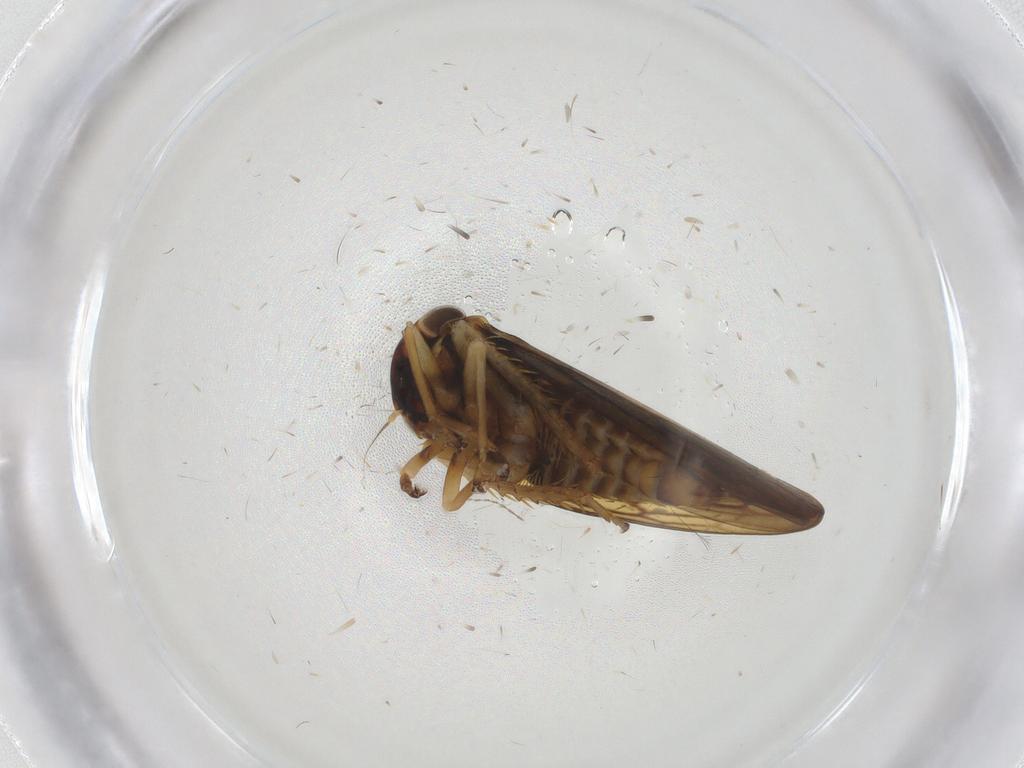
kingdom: Animalia
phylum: Arthropoda
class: Insecta
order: Hemiptera
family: Cicadellidae
